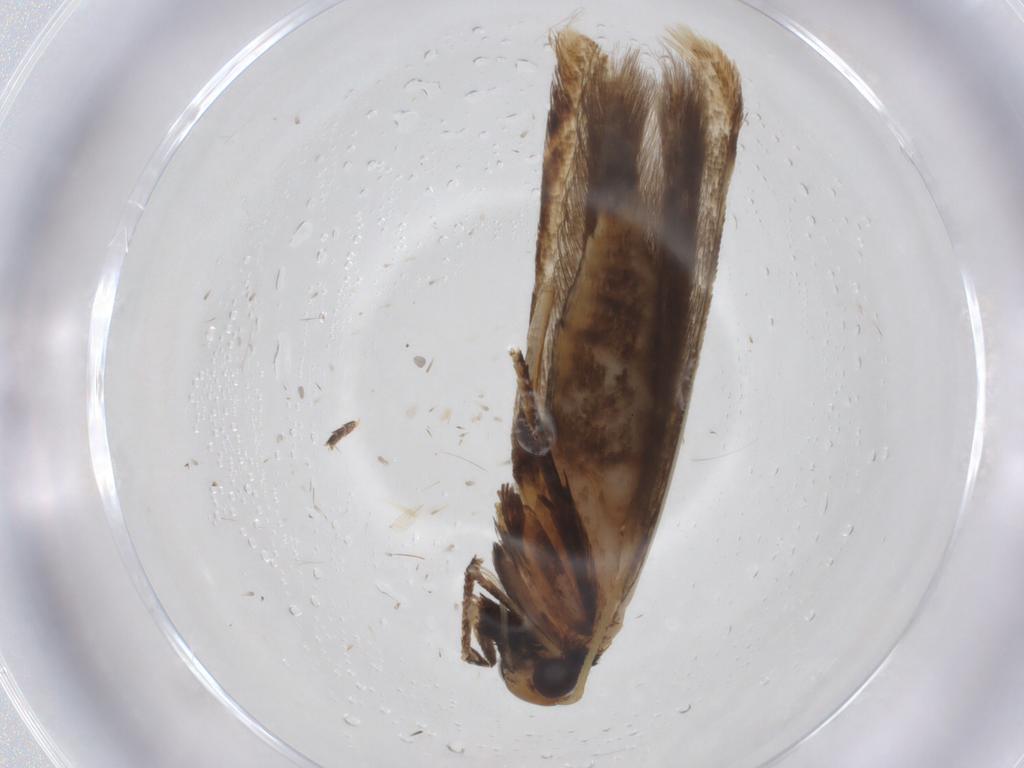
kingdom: Animalia
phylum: Arthropoda
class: Insecta
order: Lepidoptera
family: Gelechiidae
